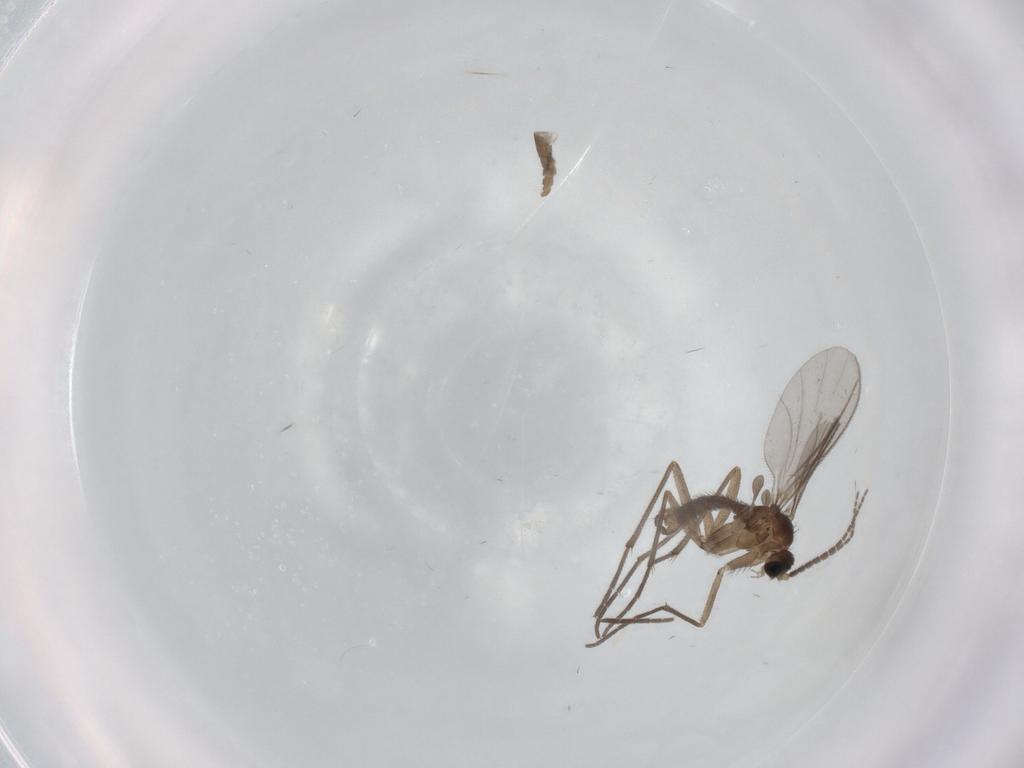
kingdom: Animalia
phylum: Arthropoda
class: Insecta
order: Diptera
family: Chironomidae
